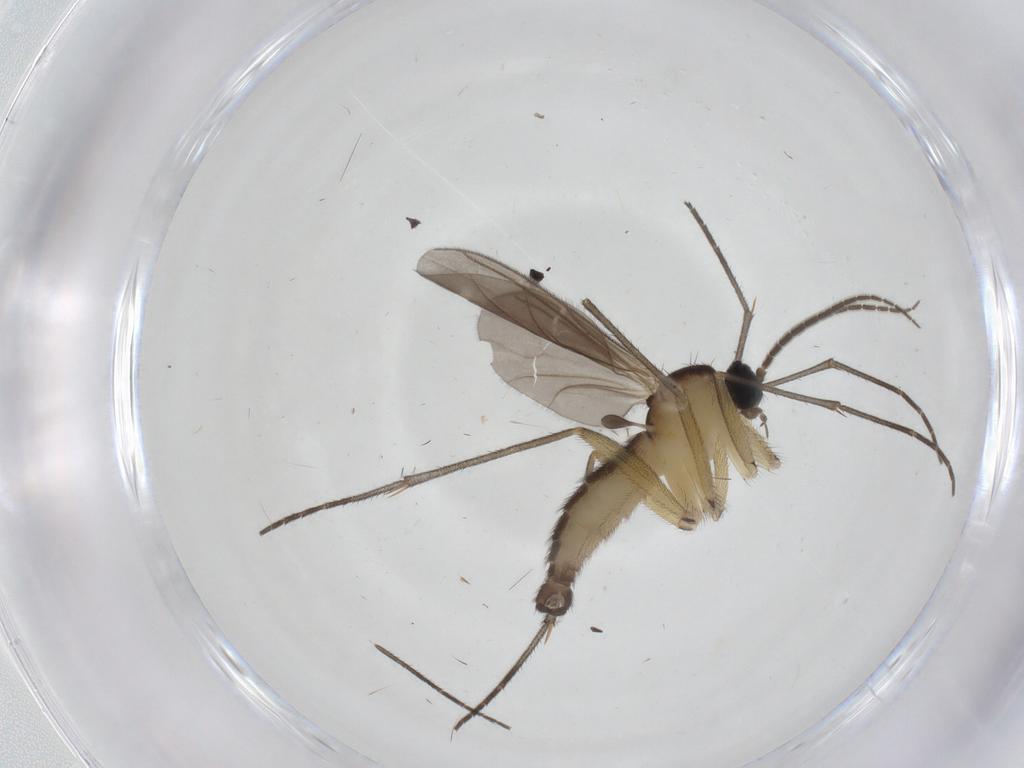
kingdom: Animalia
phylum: Arthropoda
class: Insecta
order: Diptera
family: Sciaridae
